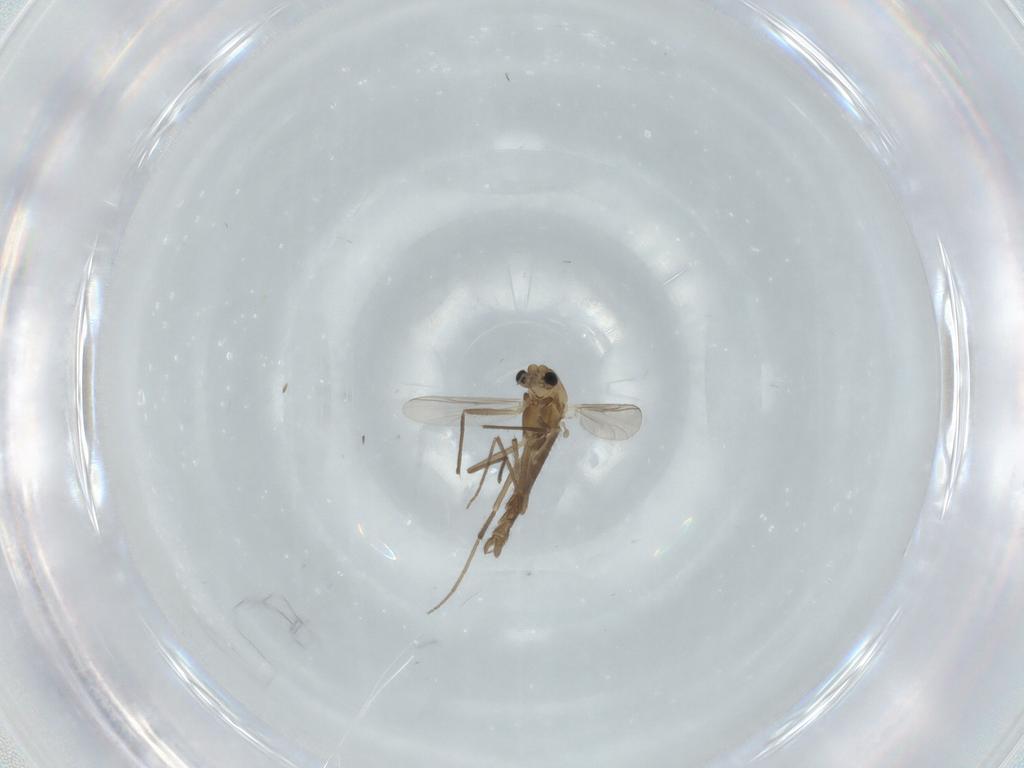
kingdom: Animalia
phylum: Arthropoda
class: Insecta
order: Diptera
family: Chironomidae
